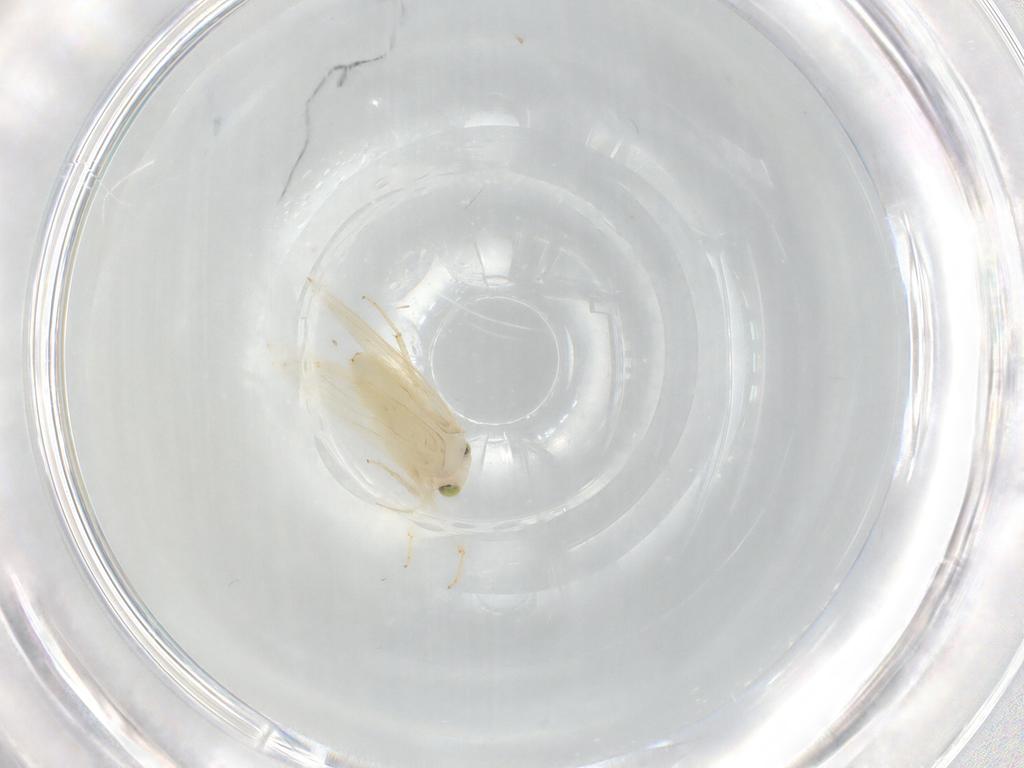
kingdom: Animalia
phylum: Arthropoda
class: Insecta
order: Psocodea
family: Lepidopsocidae
